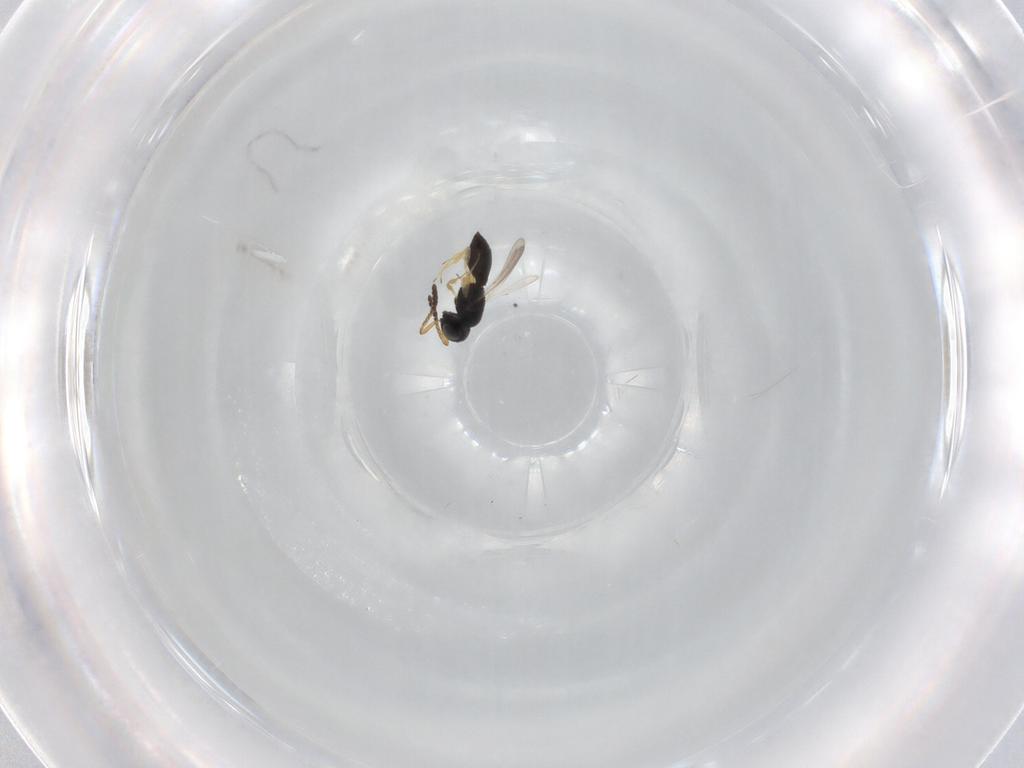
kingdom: Animalia
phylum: Arthropoda
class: Insecta
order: Hymenoptera
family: Scelionidae
